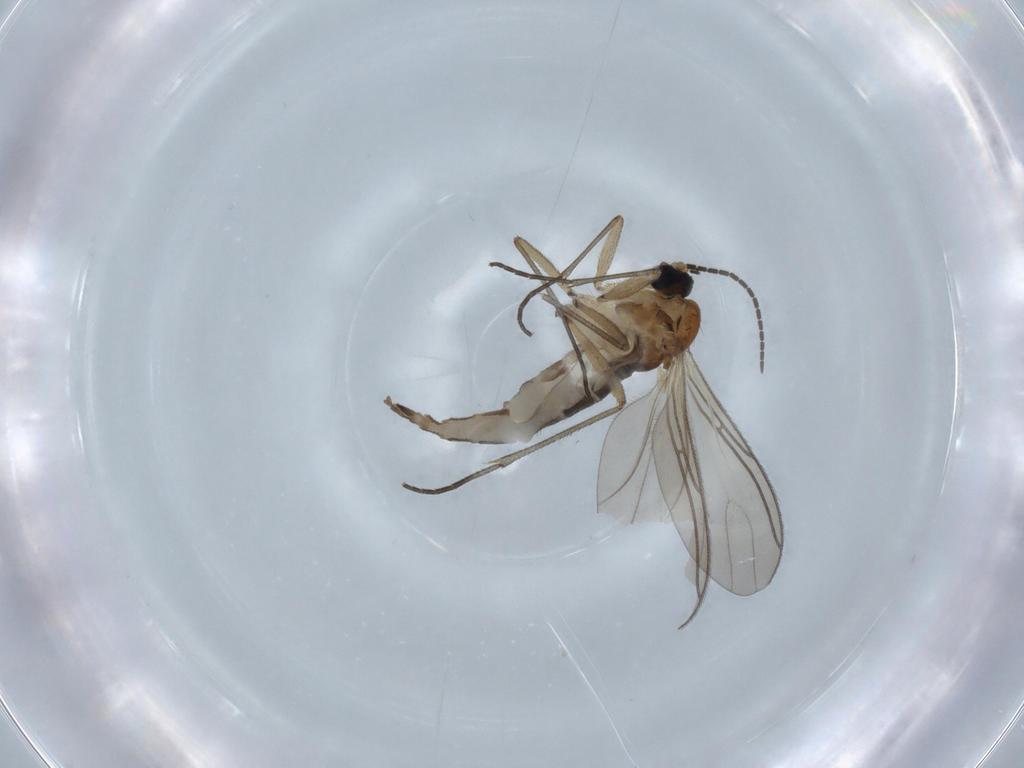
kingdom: Animalia
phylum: Arthropoda
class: Insecta
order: Diptera
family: Sciaridae
